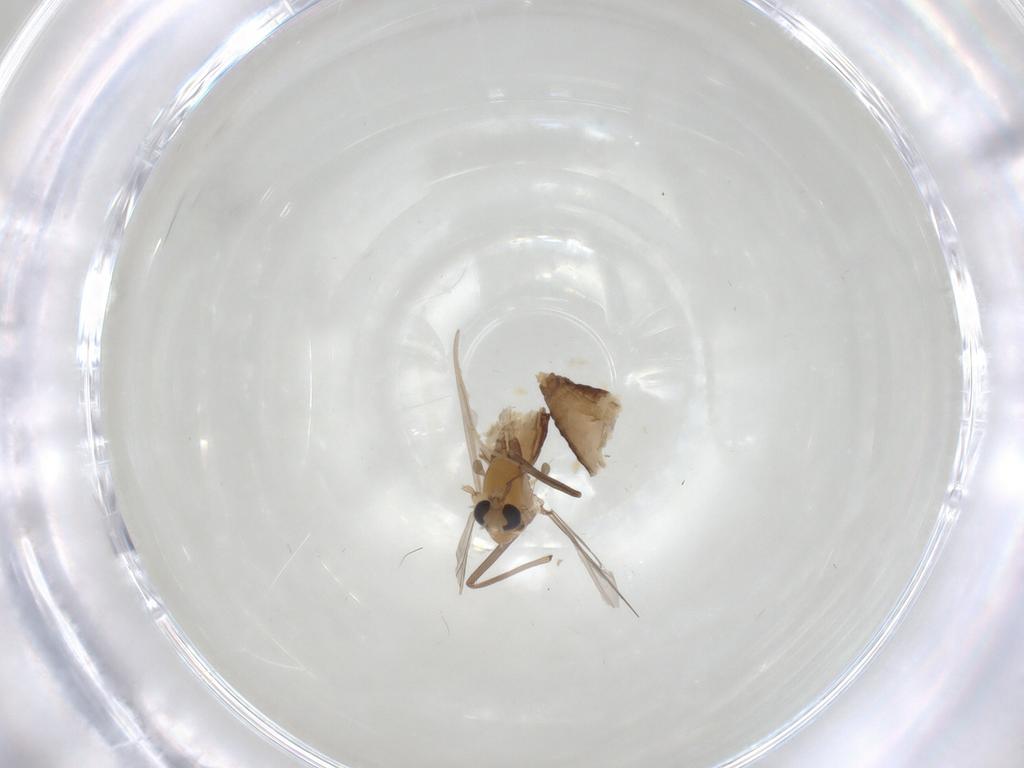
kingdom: Animalia
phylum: Arthropoda
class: Insecta
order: Diptera
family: Chironomidae
